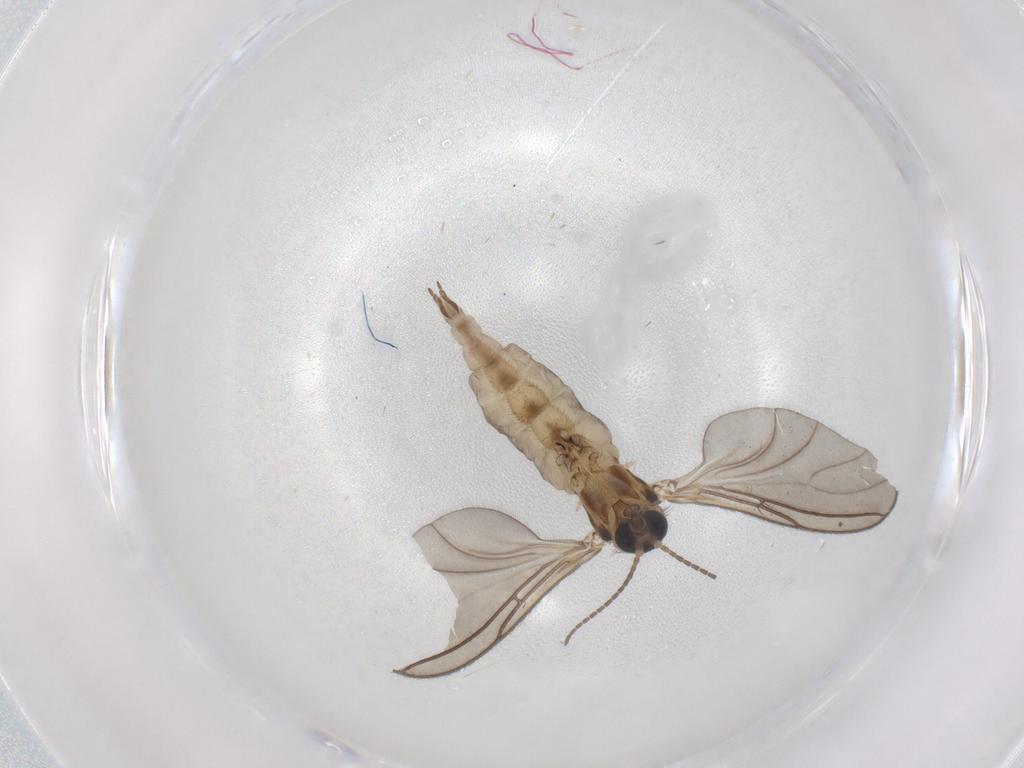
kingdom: Animalia
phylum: Arthropoda
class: Insecta
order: Diptera
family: Sciaridae
